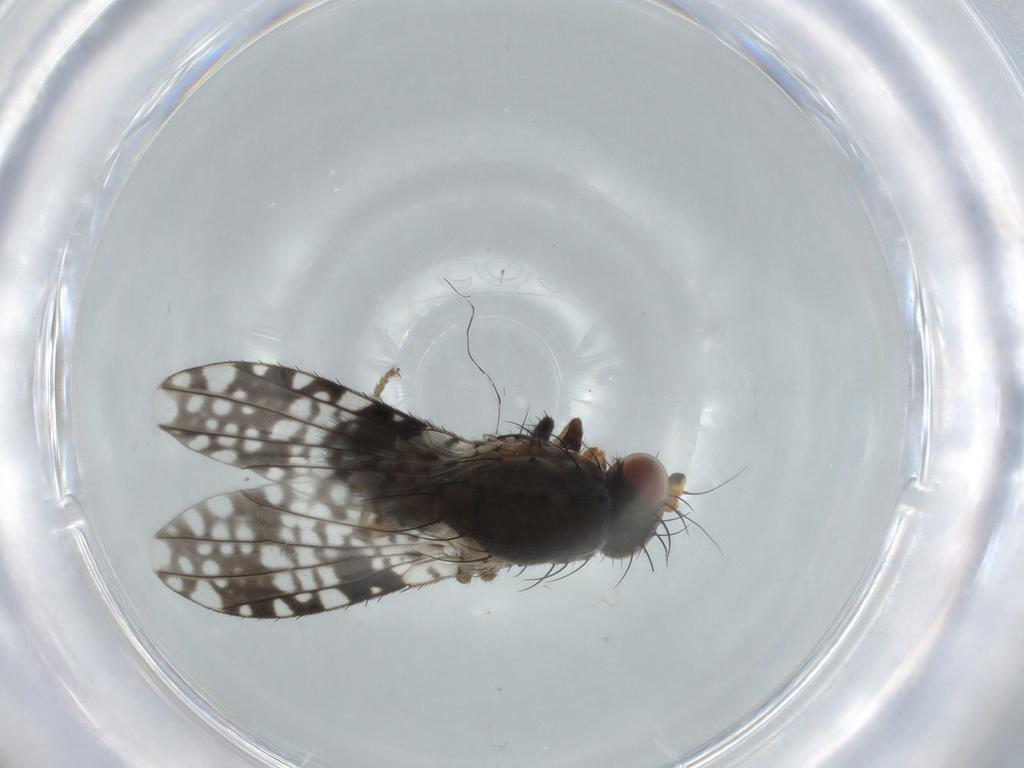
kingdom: Animalia
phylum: Arthropoda
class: Insecta
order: Diptera
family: Tephritidae
